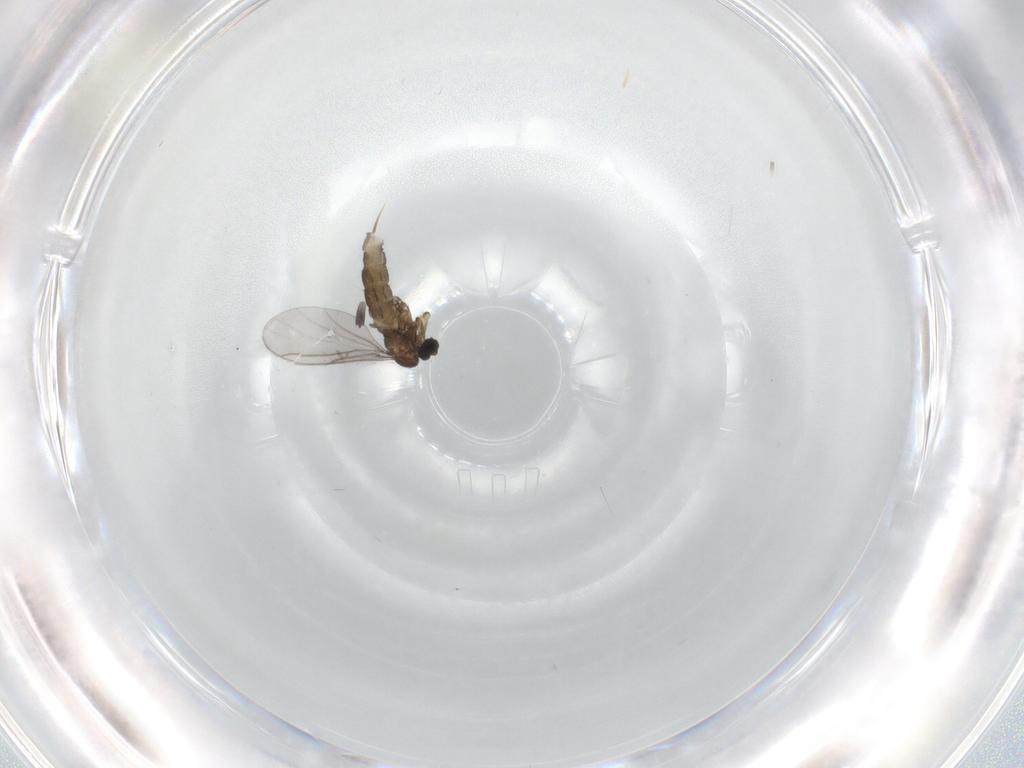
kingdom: Animalia
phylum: Arthropoda
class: Insecta
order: Diptera
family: Sciaridae
